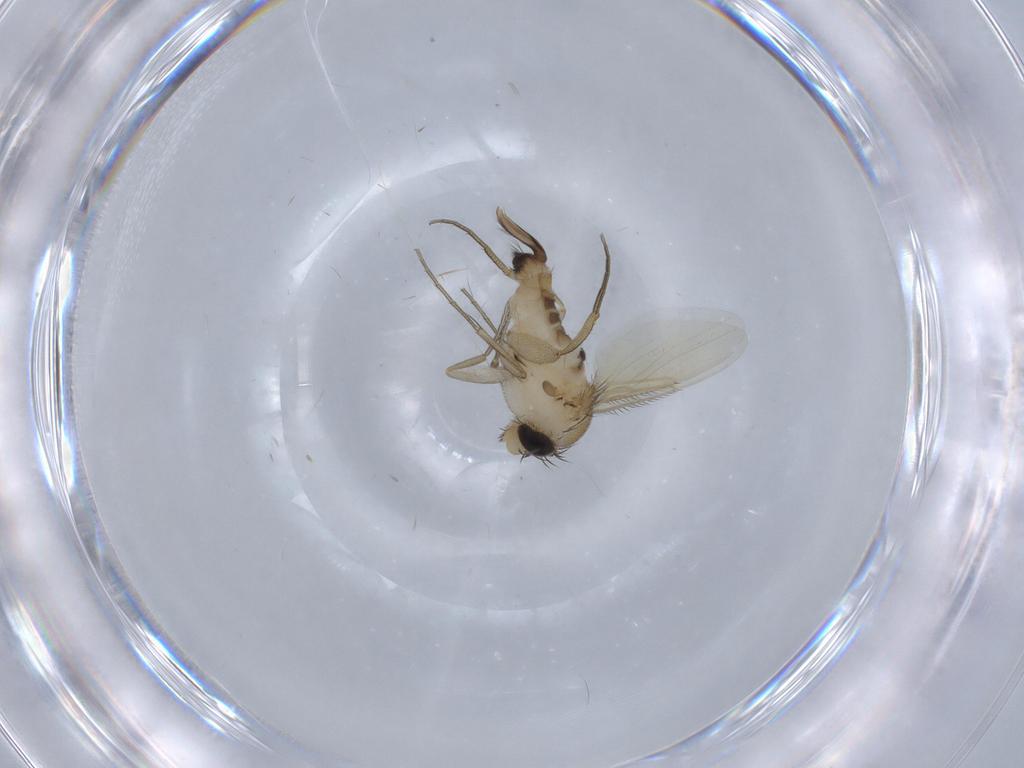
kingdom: Animalia
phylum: Arthropoda
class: Insecta
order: Diptera
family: Phoridae
